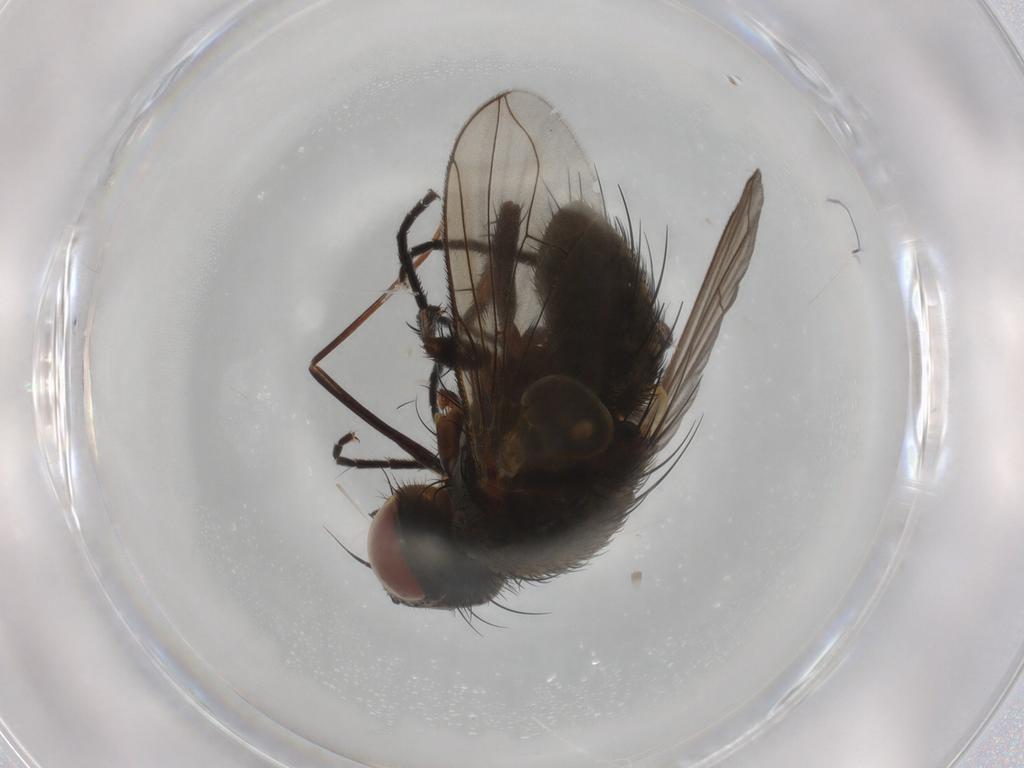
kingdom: Animalia
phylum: Arthropoda
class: Insecta
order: Diptera
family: Tachinidae
